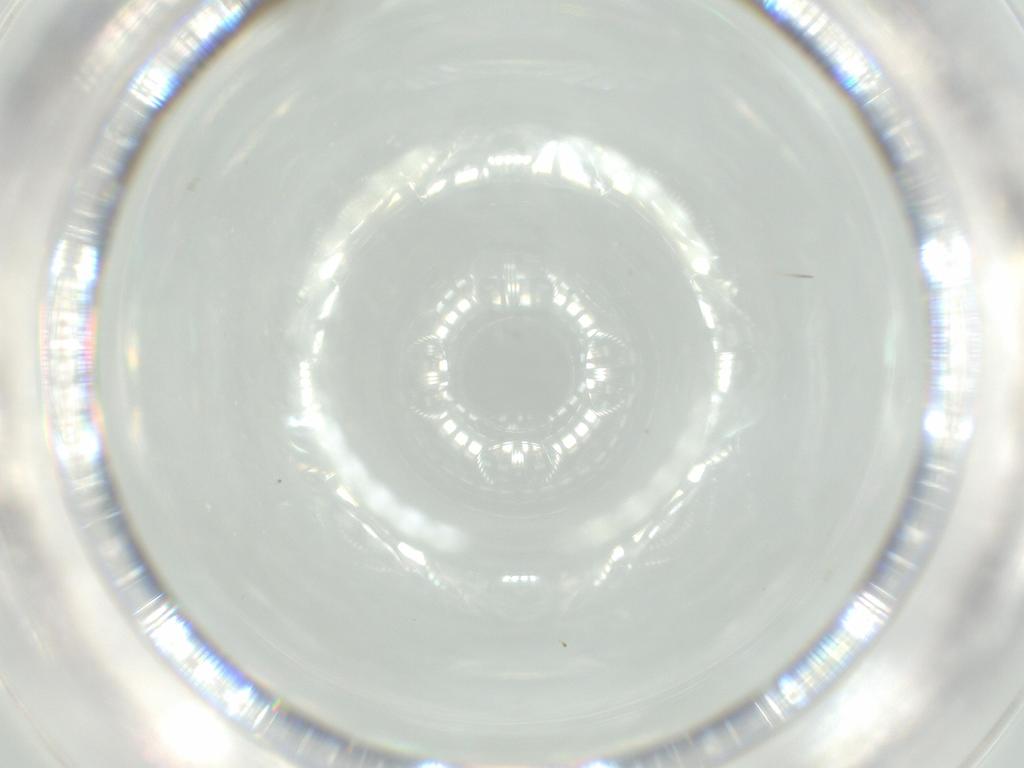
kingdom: Animalia
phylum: Arthropoda
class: Insecta
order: Diptera
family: Chironomidae
